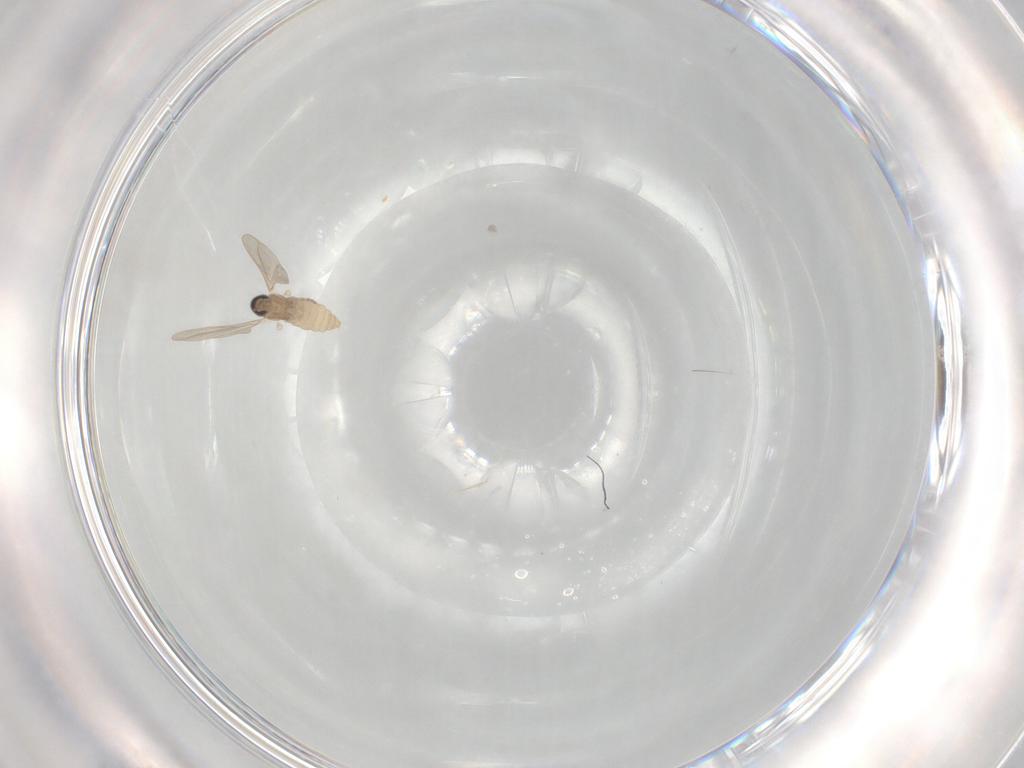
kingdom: Animalia
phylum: Arthropoda
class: Insecta
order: Diptera
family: Cecidomyiidae
